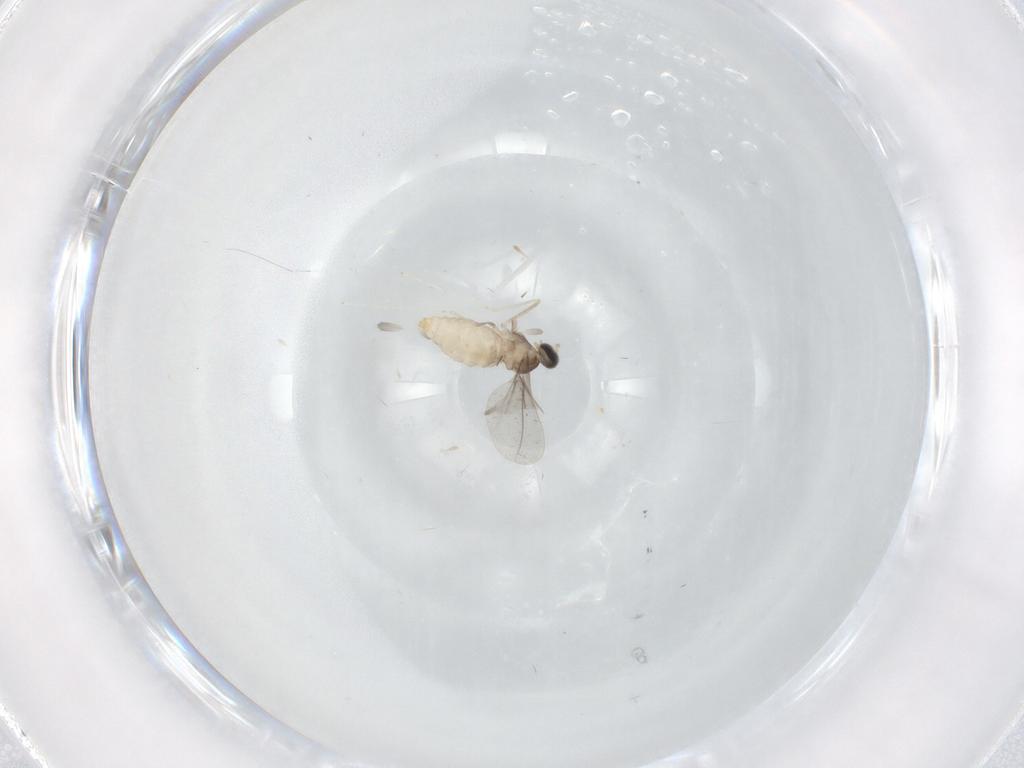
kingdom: Animalia
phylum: Arthropoda
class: Insecta
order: Diptera
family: Cecidomyiidae
